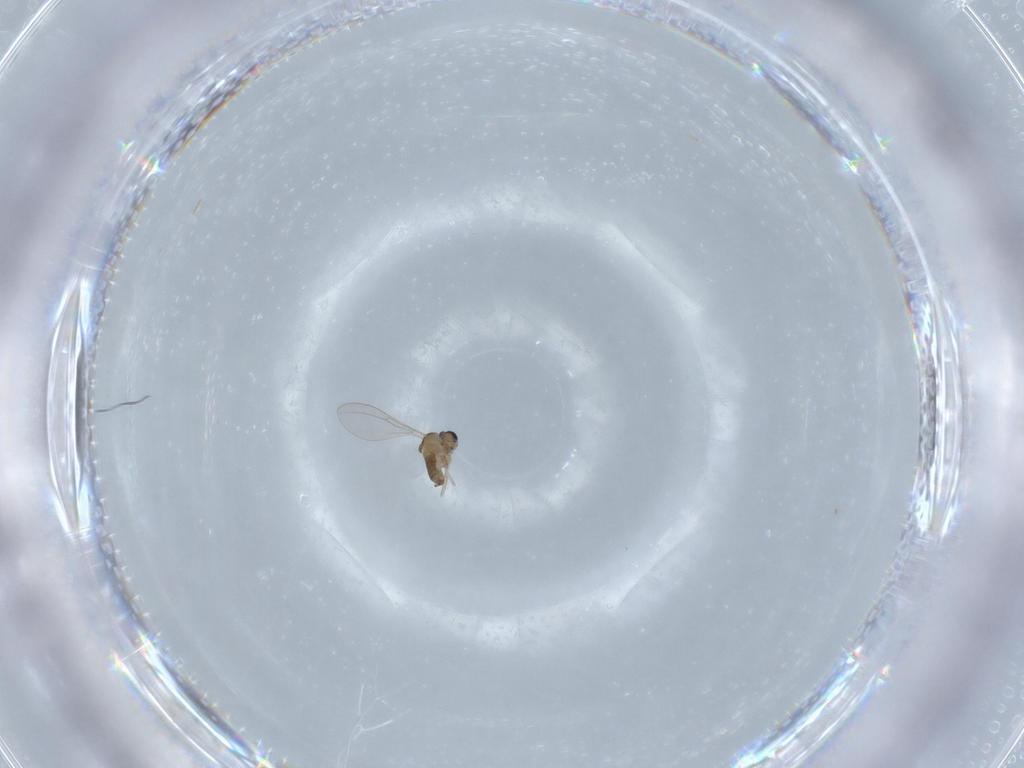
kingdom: Animalia
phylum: Arthropoda
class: Insecta
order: Diptera
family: Cecidomyiidae
